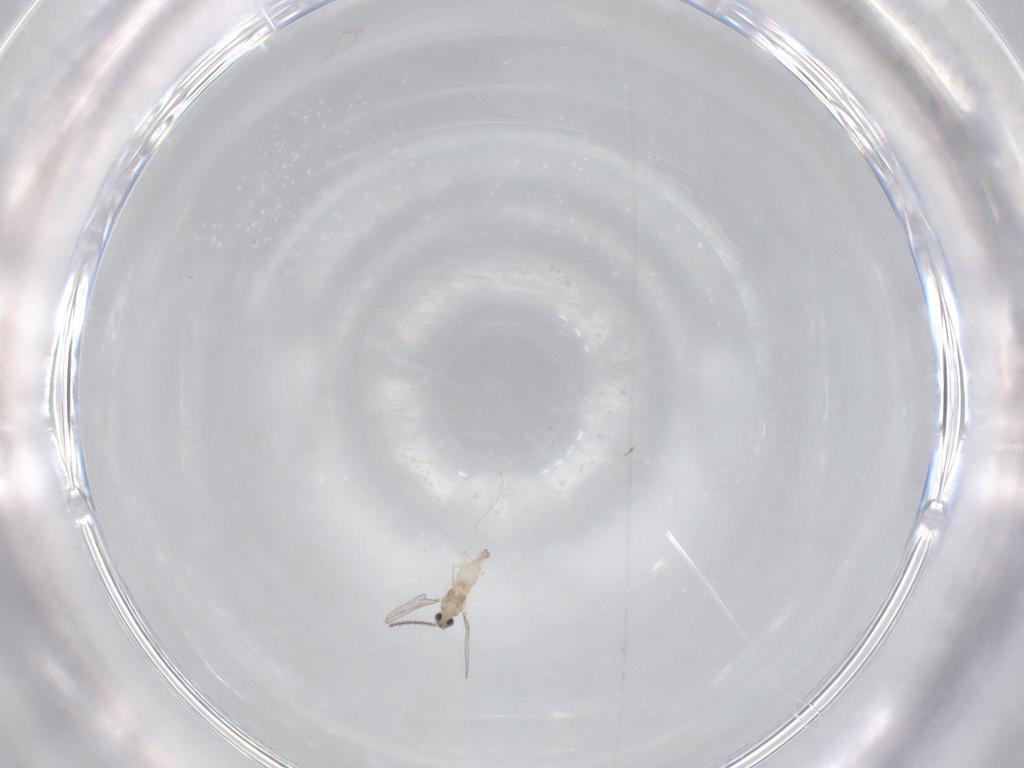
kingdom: Animalia
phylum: Arthropoda
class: Insecta
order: Diptera
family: Cecidomyiidae
